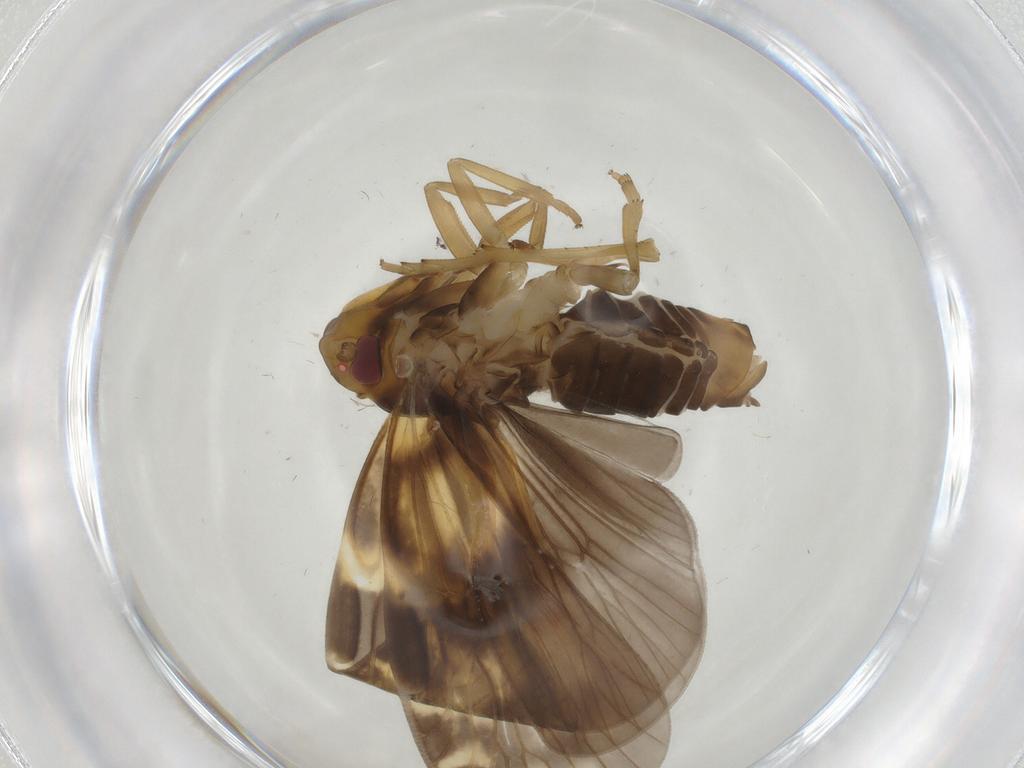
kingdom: Animalia
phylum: Arthropoda
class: Insecta
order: Hemiptera
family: Cixiidae
